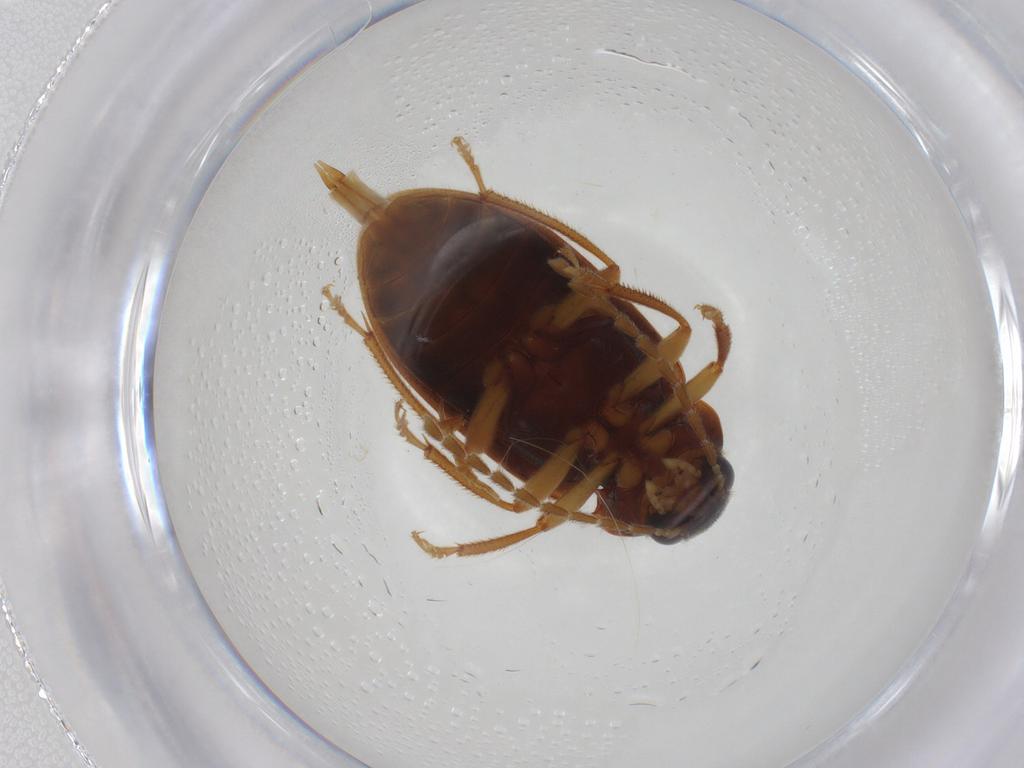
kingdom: Animalia
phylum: Arthropoda
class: Insecta
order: Coleoptera
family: Ptilodactylidae
